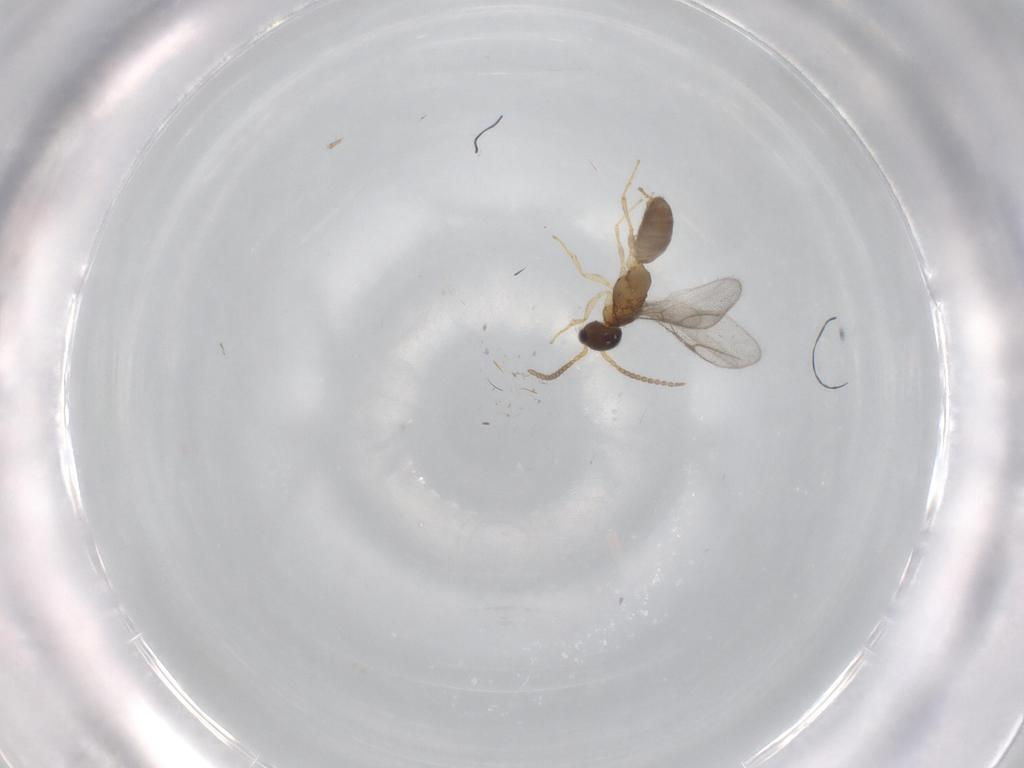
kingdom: Animalia
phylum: Arthropoda
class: Insecta
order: Hymenoptera
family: Bethylidae
